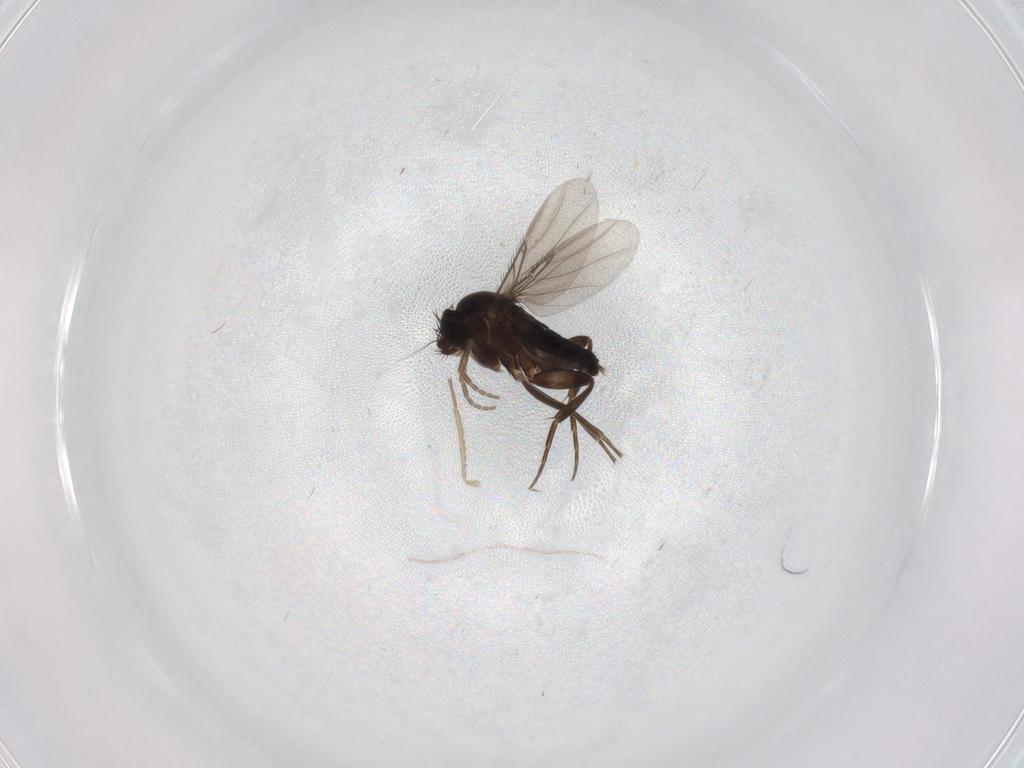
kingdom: Animalia
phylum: Arthropoda
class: Insecta
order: Diptera
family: Phoridae
